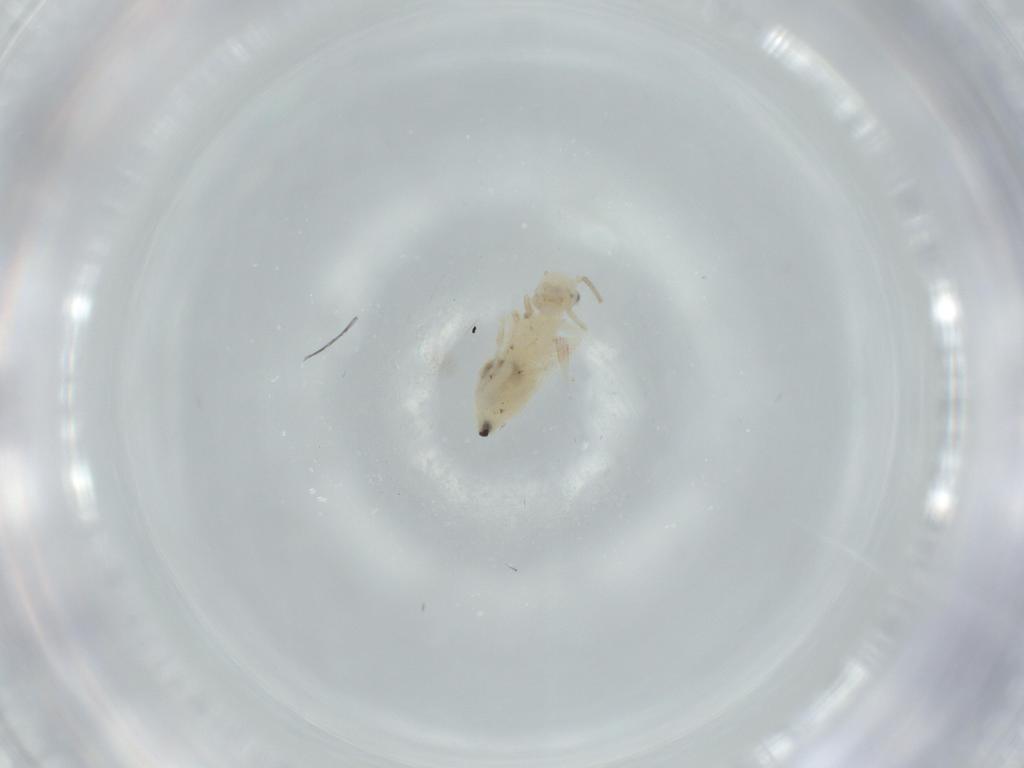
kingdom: Animalia
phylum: Arthropoda
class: Insecta
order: Psocodea
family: Caeciliusidae
